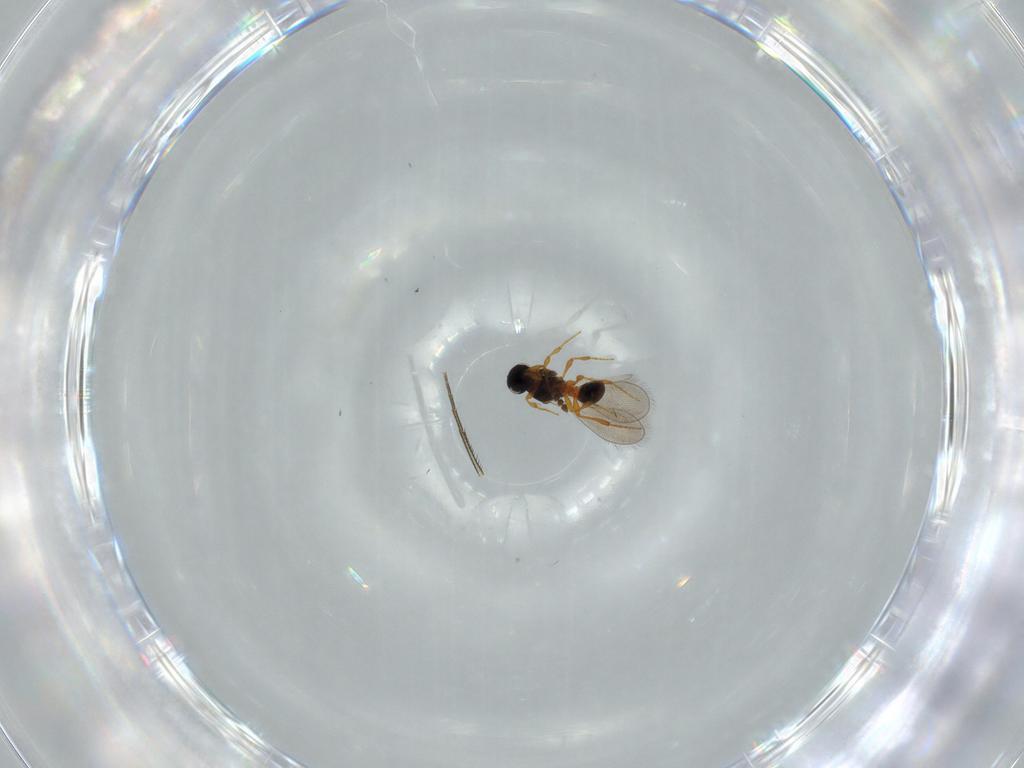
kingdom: Animalia
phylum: Arthropoda
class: Insecta
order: Hymenoptera
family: Platygastridae
